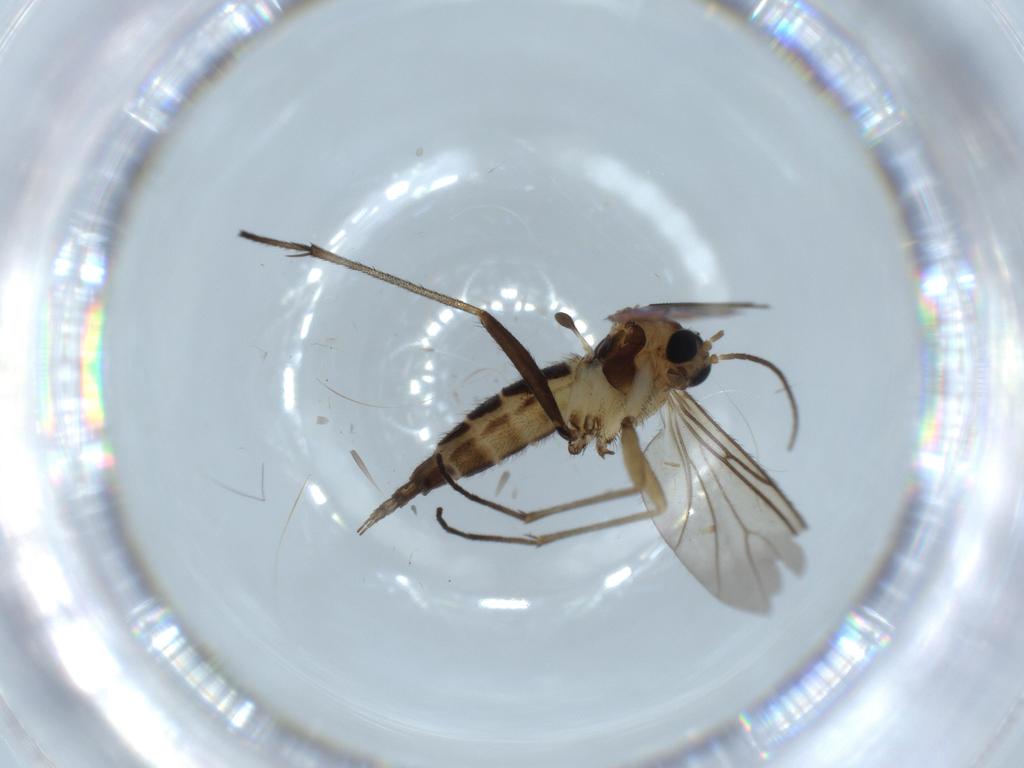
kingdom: Animalia
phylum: Arthropoda
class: Insecta
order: Diptera
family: Sciaridae
